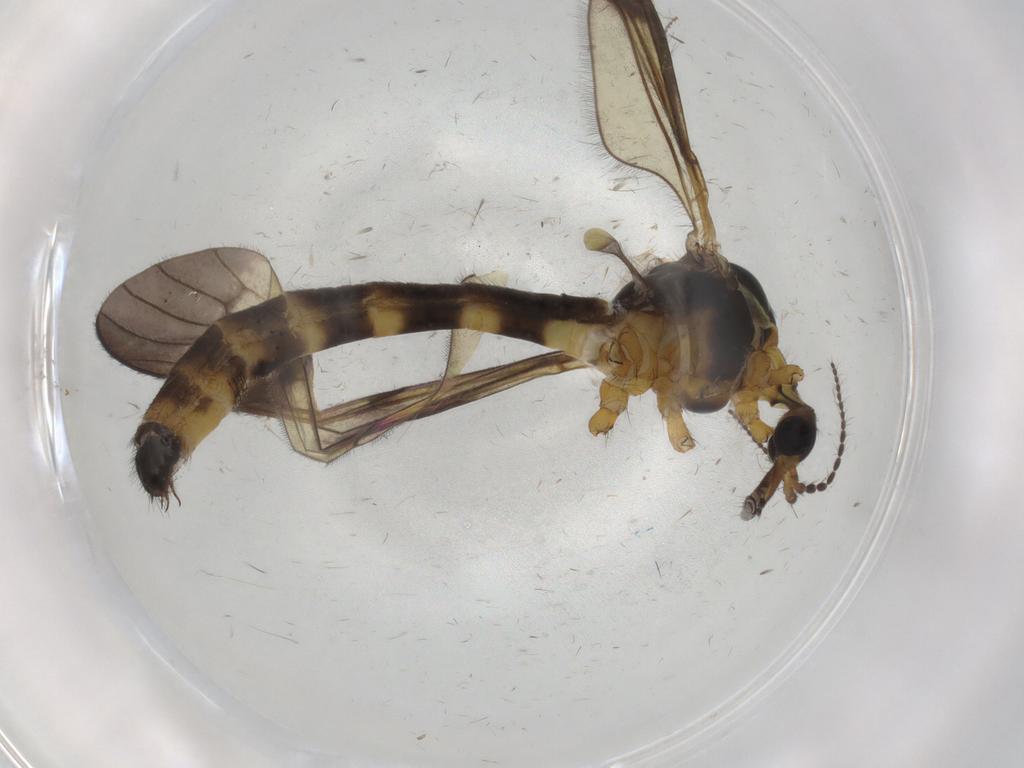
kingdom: Animalia
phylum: Arthropoda
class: Insecta
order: Diptera
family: Limoniidae
